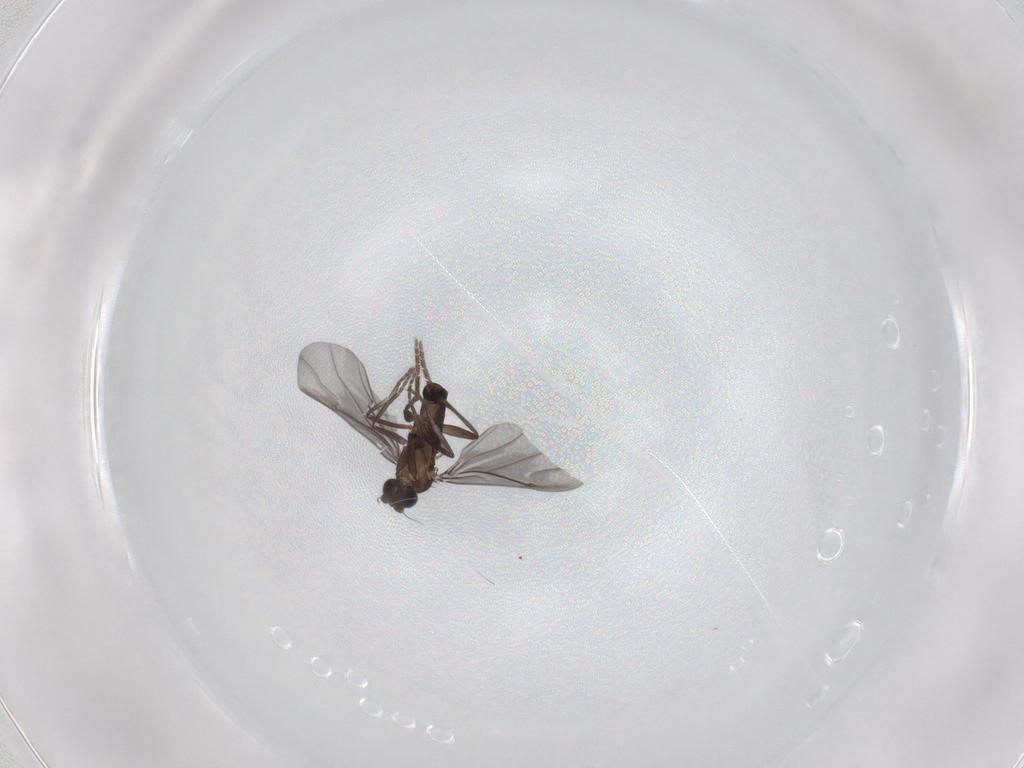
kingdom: Animalia
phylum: Arthropoda
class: Insecta
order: Diptera
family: Phoridae
